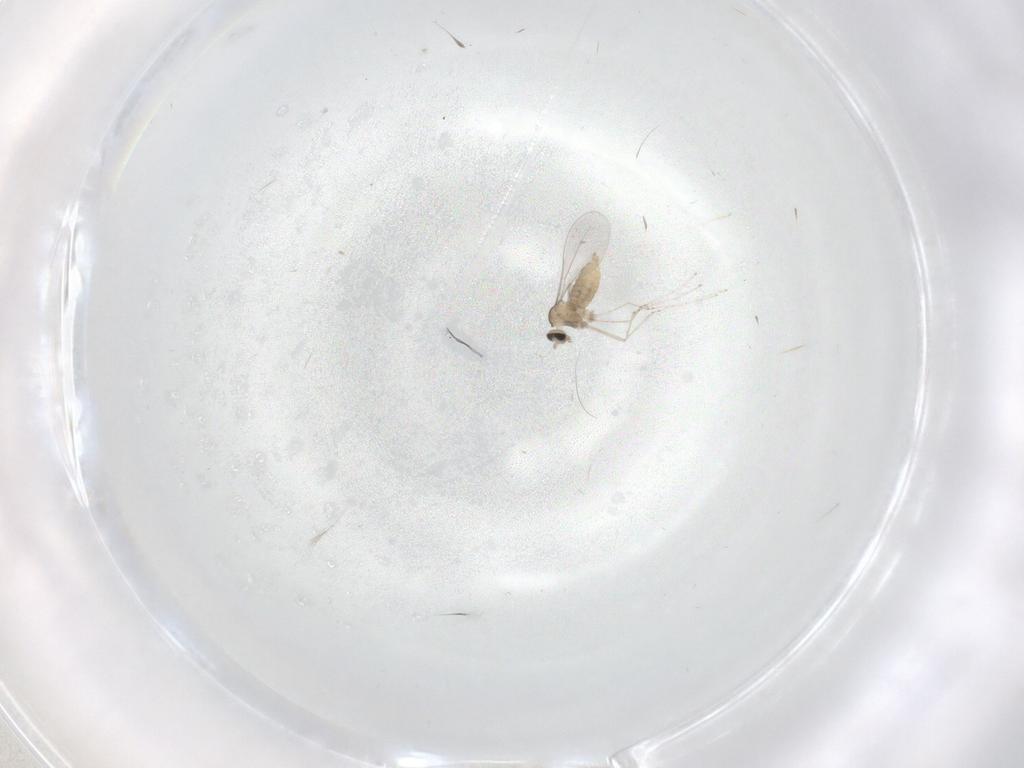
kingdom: Animalia
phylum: Arthropoda
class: Insecta
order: Diptera
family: Cecidomyiidae
